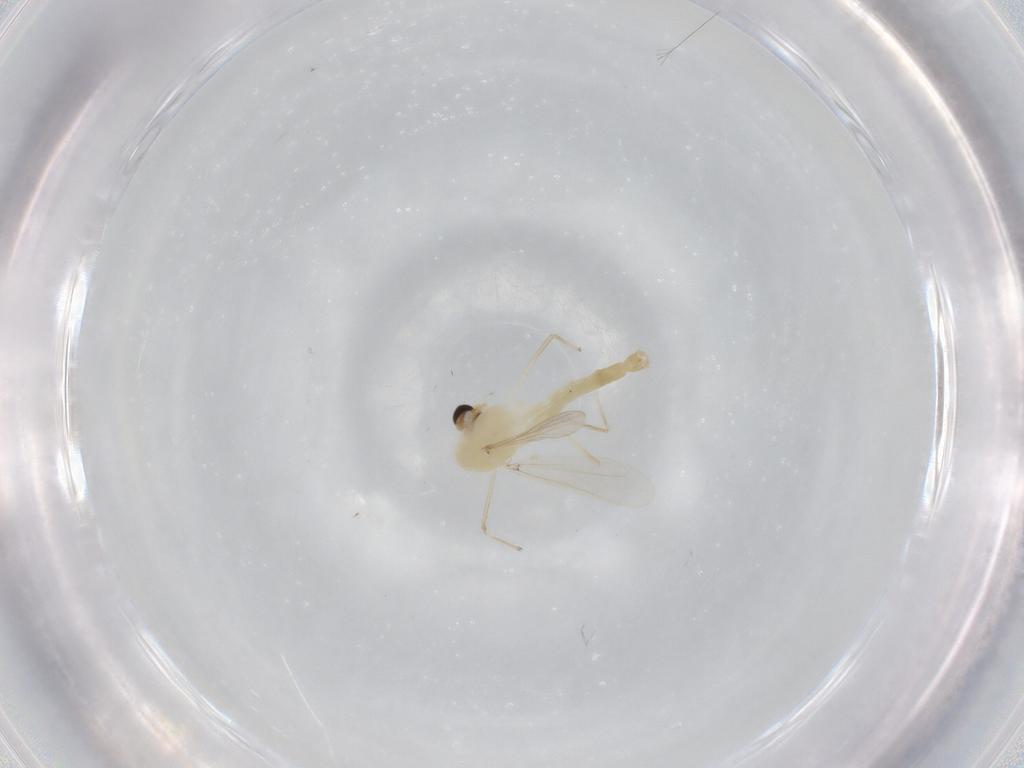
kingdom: Animalia
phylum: Arthropoda
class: Insecta
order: Diptera
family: Chironomidae
